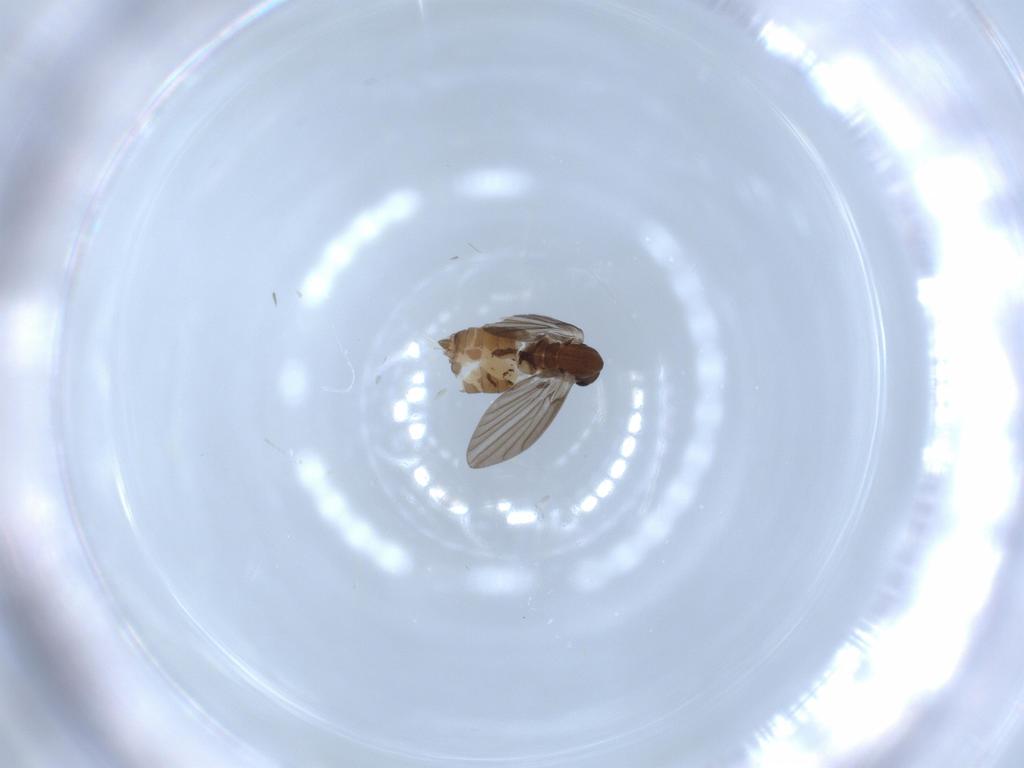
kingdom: Animalia
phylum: Arthropoda
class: Insecta
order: Diptera
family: Psychodidae
